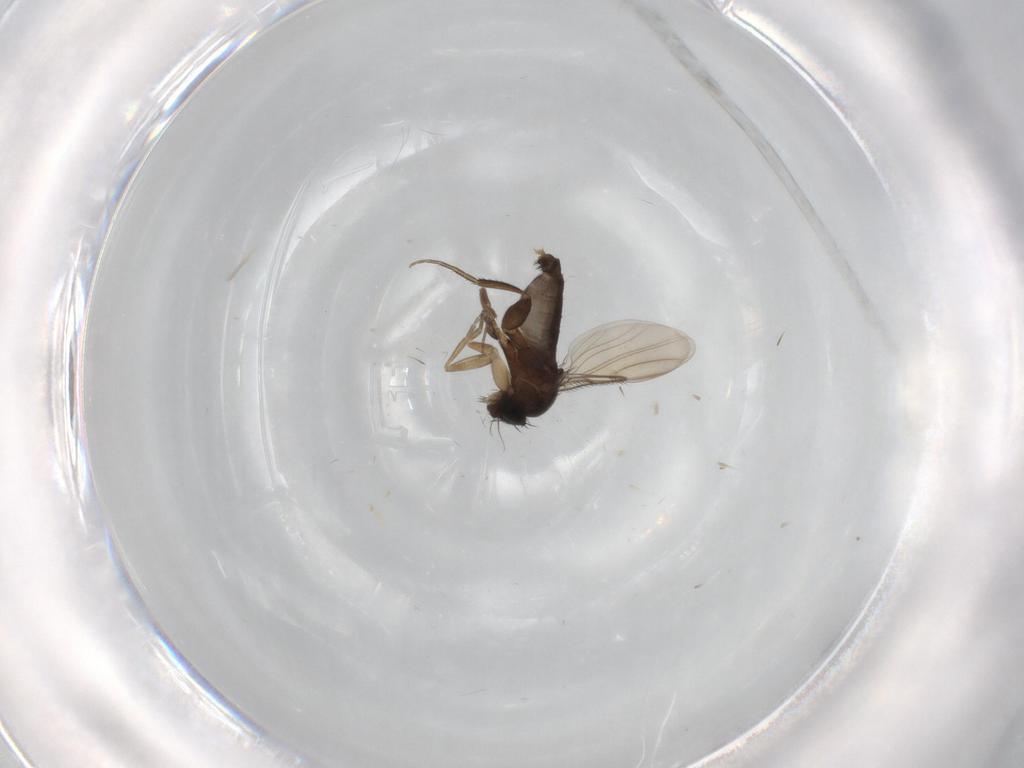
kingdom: Animalia
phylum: Arthropoda
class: Insecta
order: Diptera
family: Phoridae
